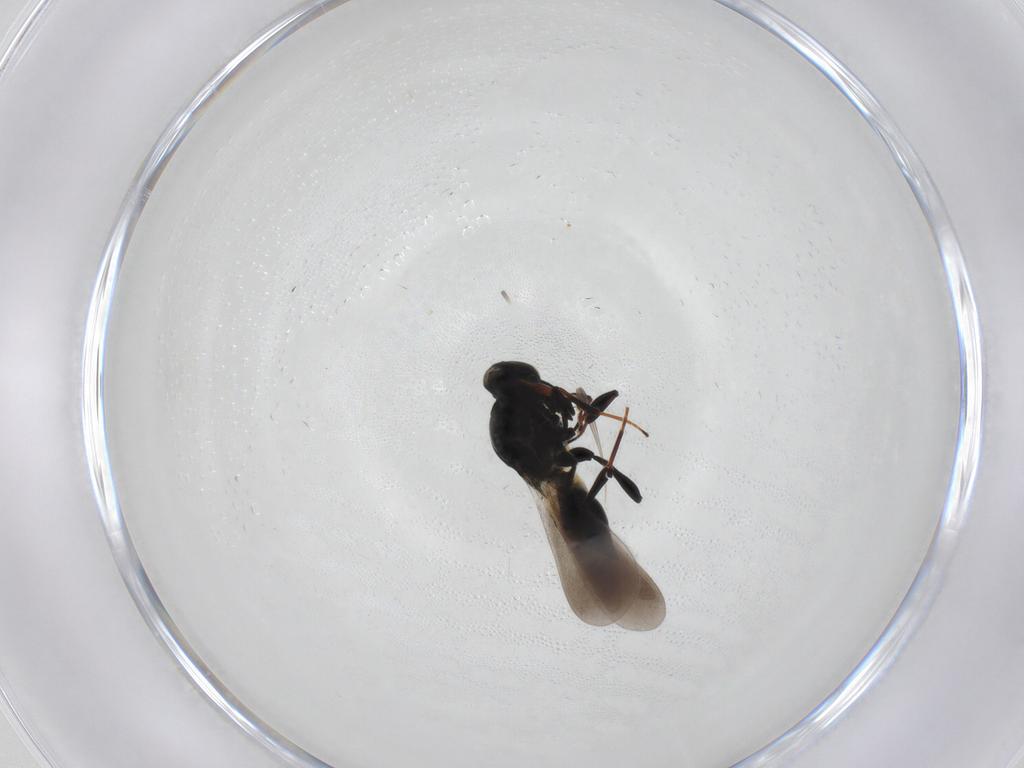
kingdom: Animalia
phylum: Arthropoda
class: Insecta
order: Hymenoptera
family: Platygastridae
